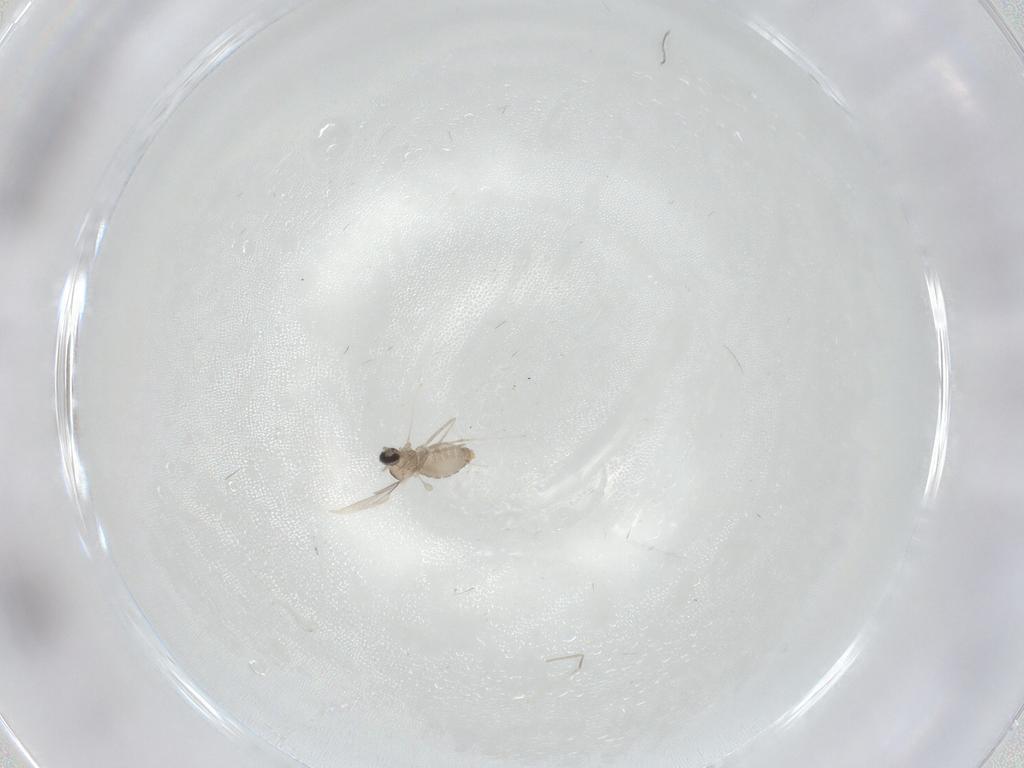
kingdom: Animalia
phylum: Arthropoda
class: Insecta
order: Diptera
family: Cecidomyiidae
